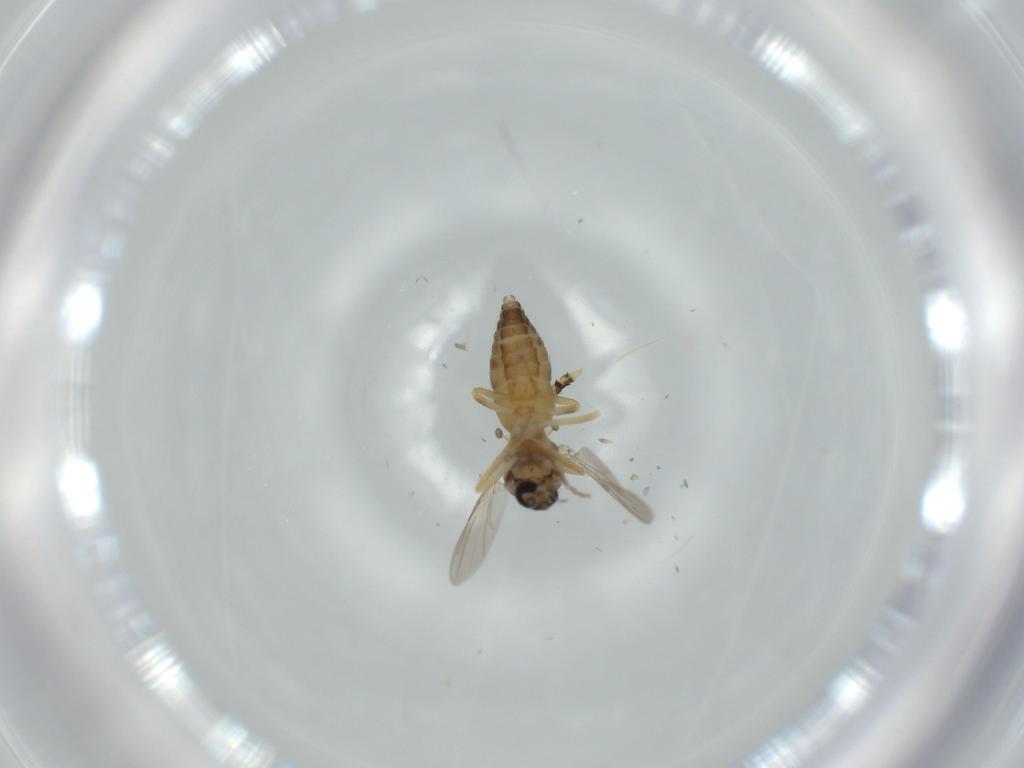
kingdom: Animalia
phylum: Arthropoda
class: Insecta
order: Diptera
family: Ceratopogonidae
